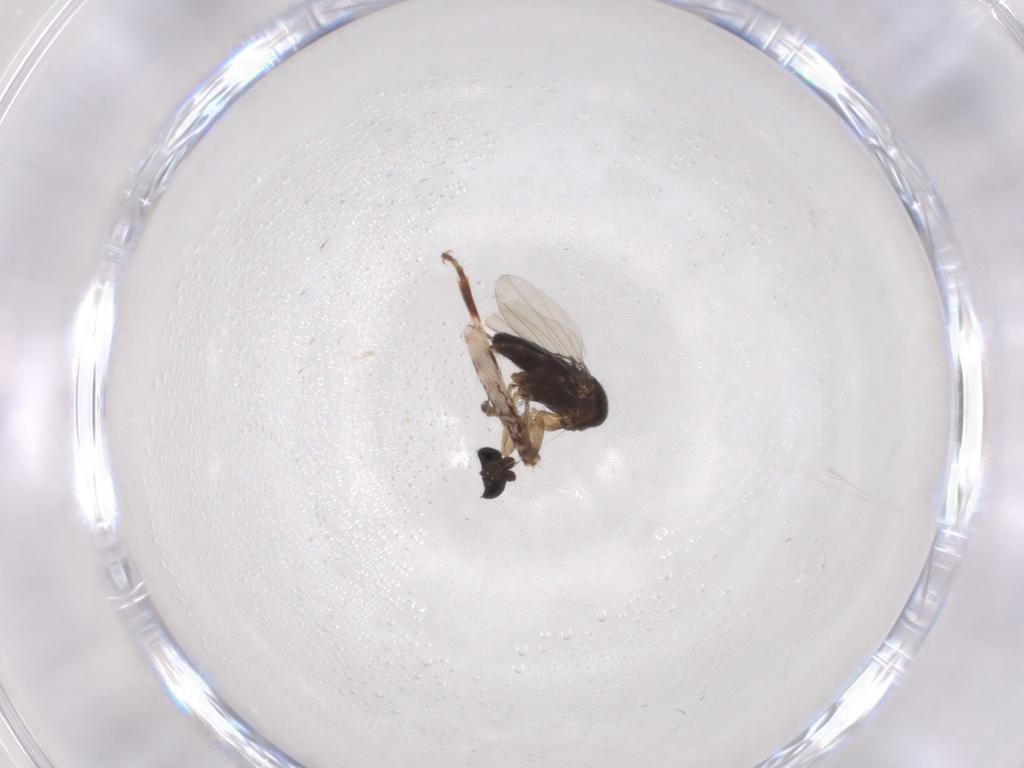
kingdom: Animalia
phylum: Arthropoda
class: Insecta
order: Diptera
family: Phoridae
